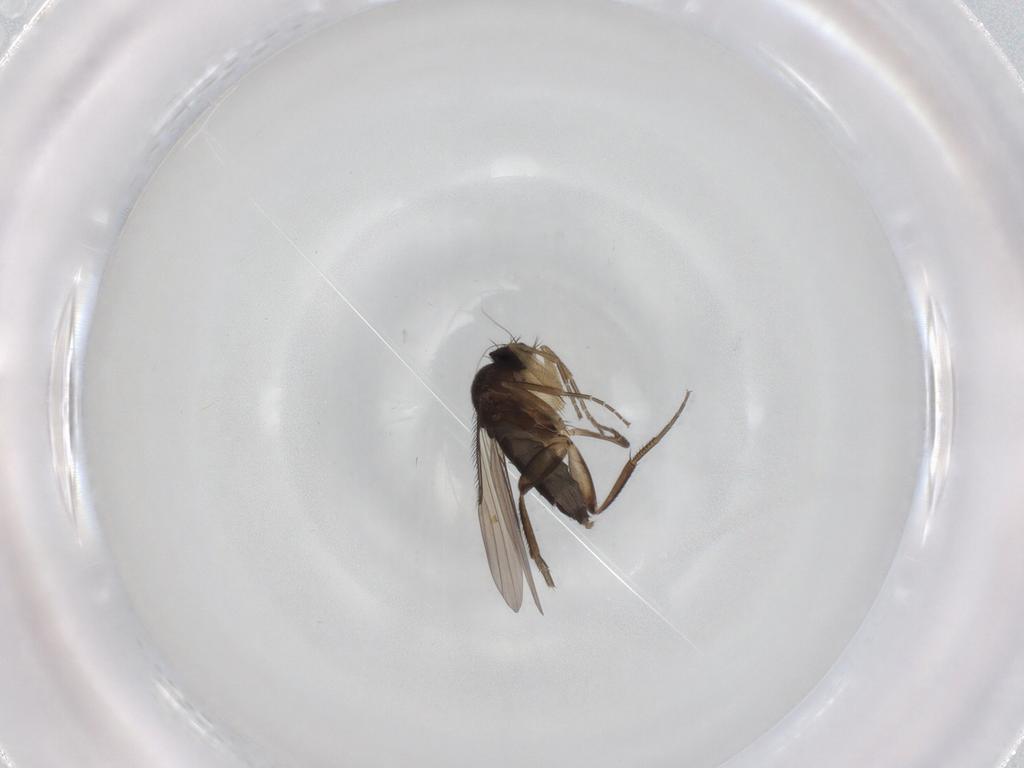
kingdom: Animalia
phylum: Arthropoda
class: Insecta
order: Diptera
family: Phoridae
